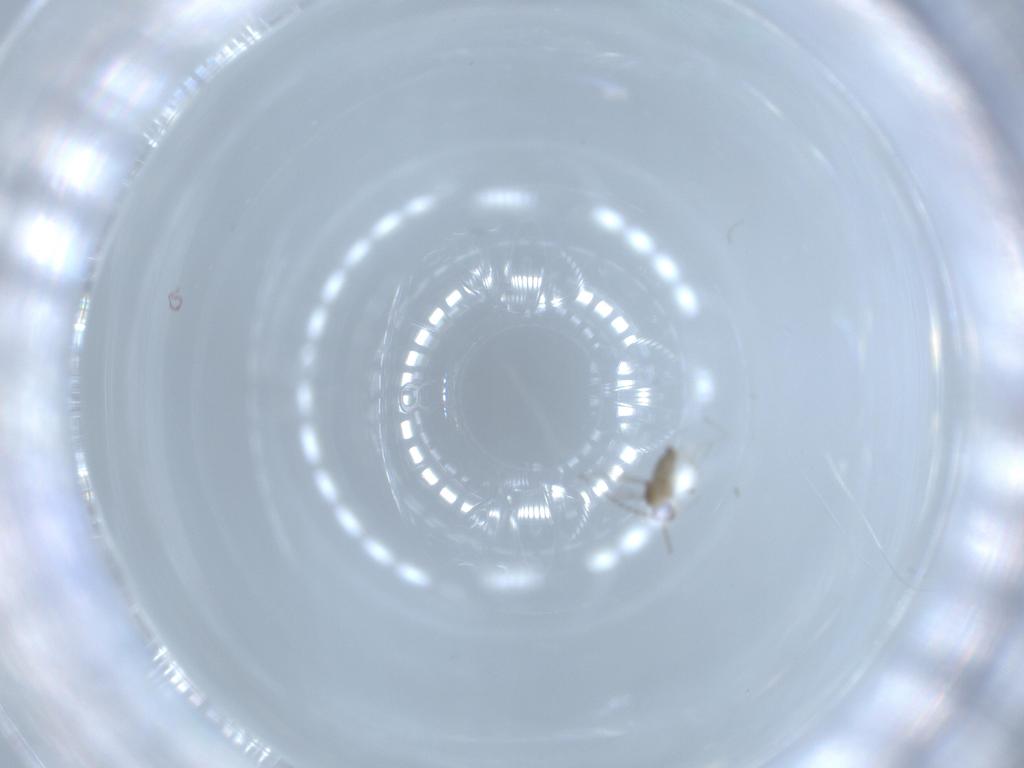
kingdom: Animalia
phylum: Arthropoda
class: Insecta
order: Diptera
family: Cecidomyiidae
